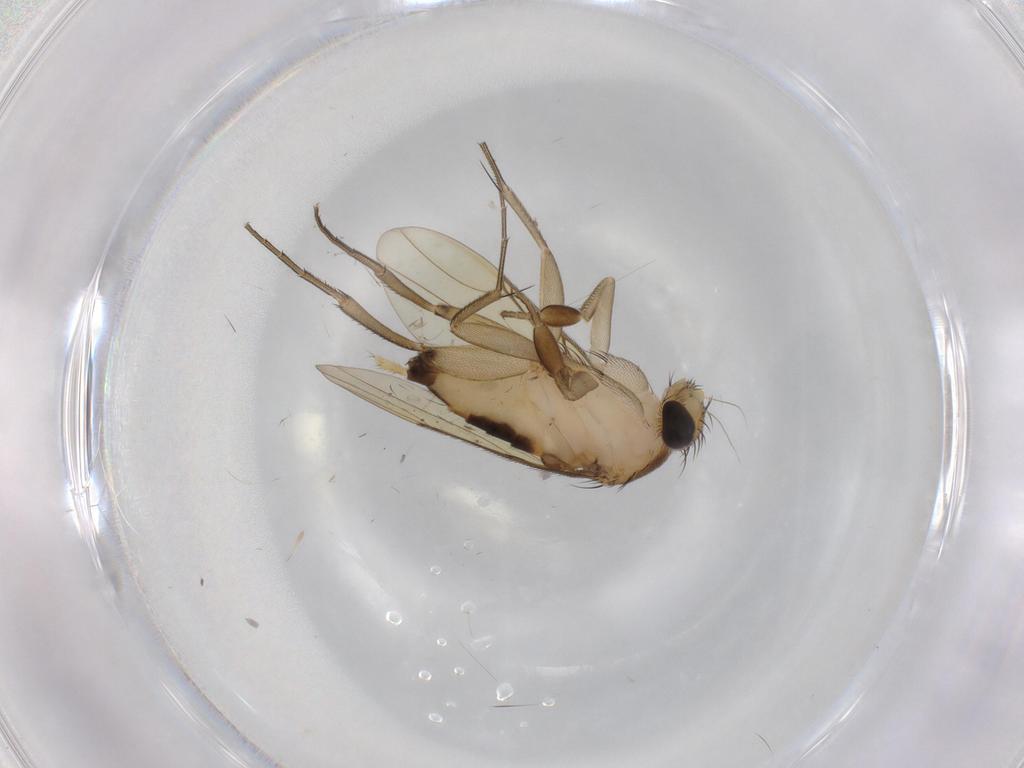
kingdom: Animalia
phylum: Arthropoda
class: Insecta
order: Diptera
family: Phoridae
